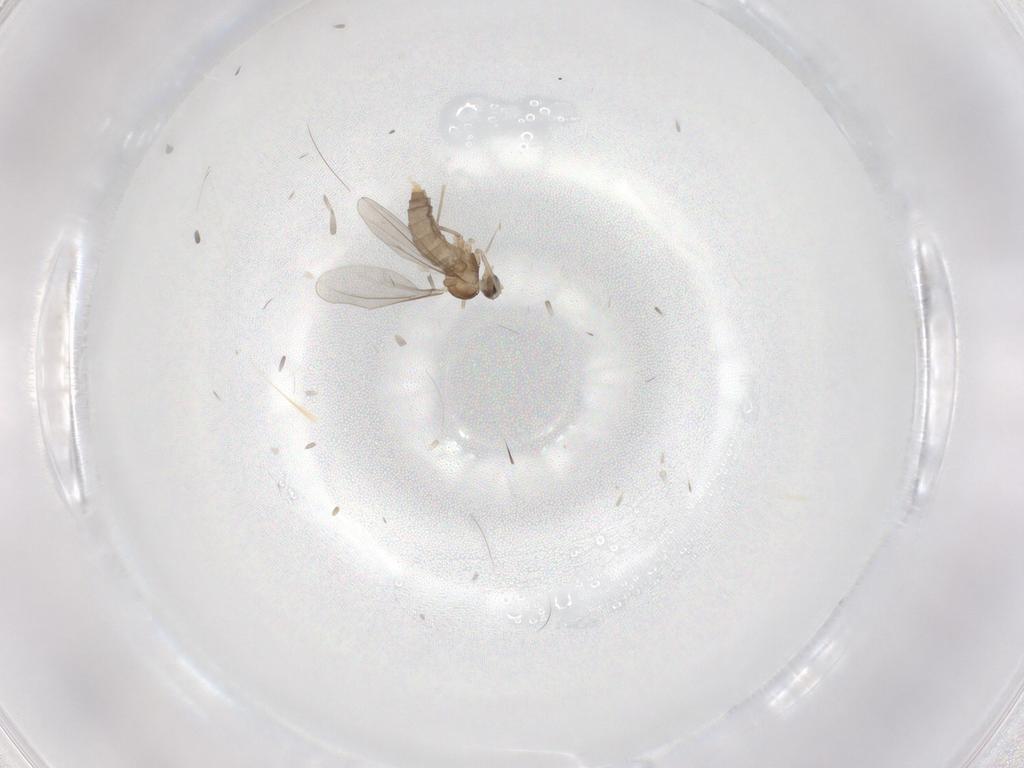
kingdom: Animalia
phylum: Arthropoda
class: Insecta
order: Diptera
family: Cecidomyiidae
